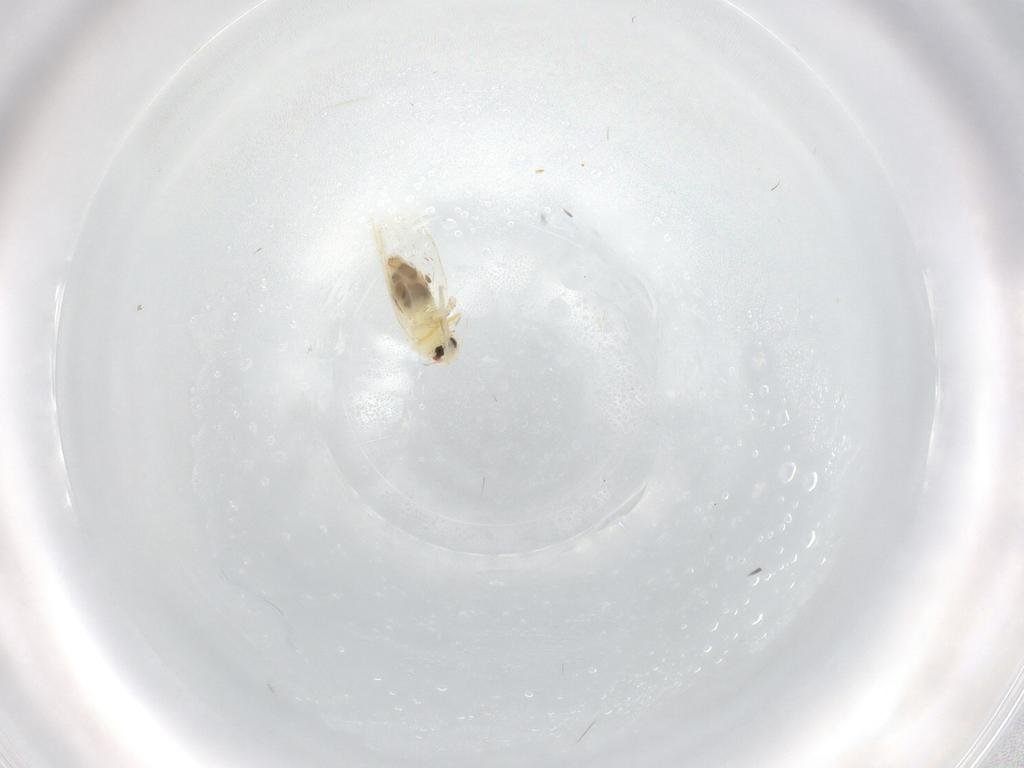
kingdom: Animalia
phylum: Arthropoda
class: Insecta
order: Hemiptera
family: Aleyrodidae
